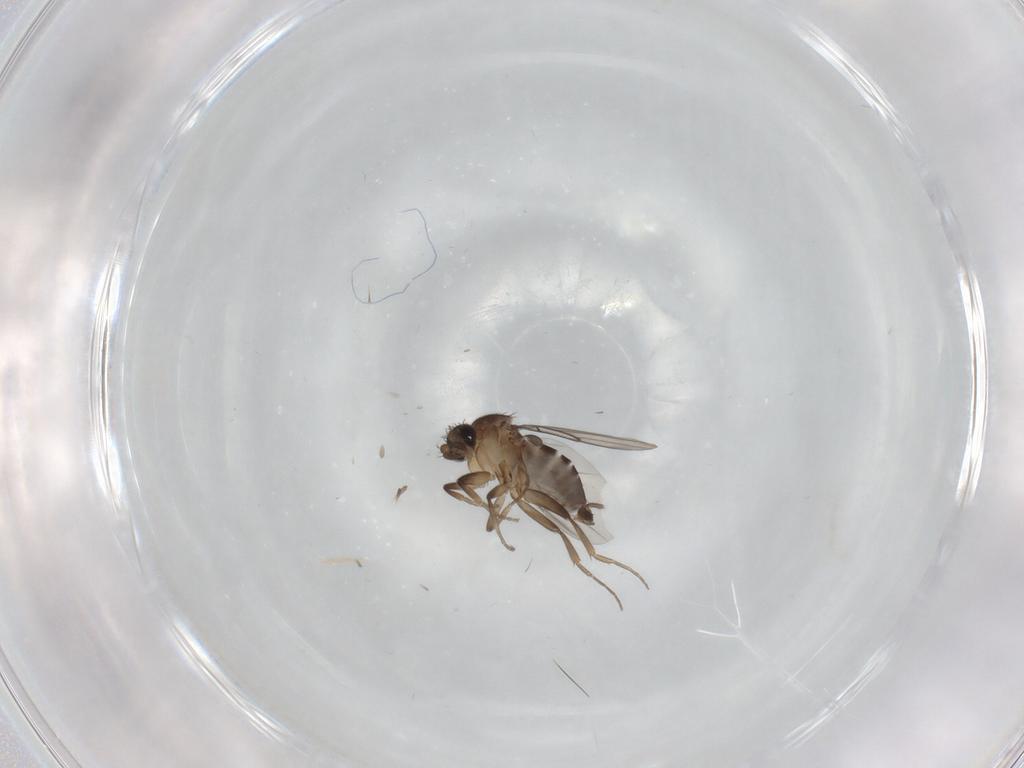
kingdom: Animalia
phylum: Arthropoda
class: Insecta
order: Diptera
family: Phoridae
